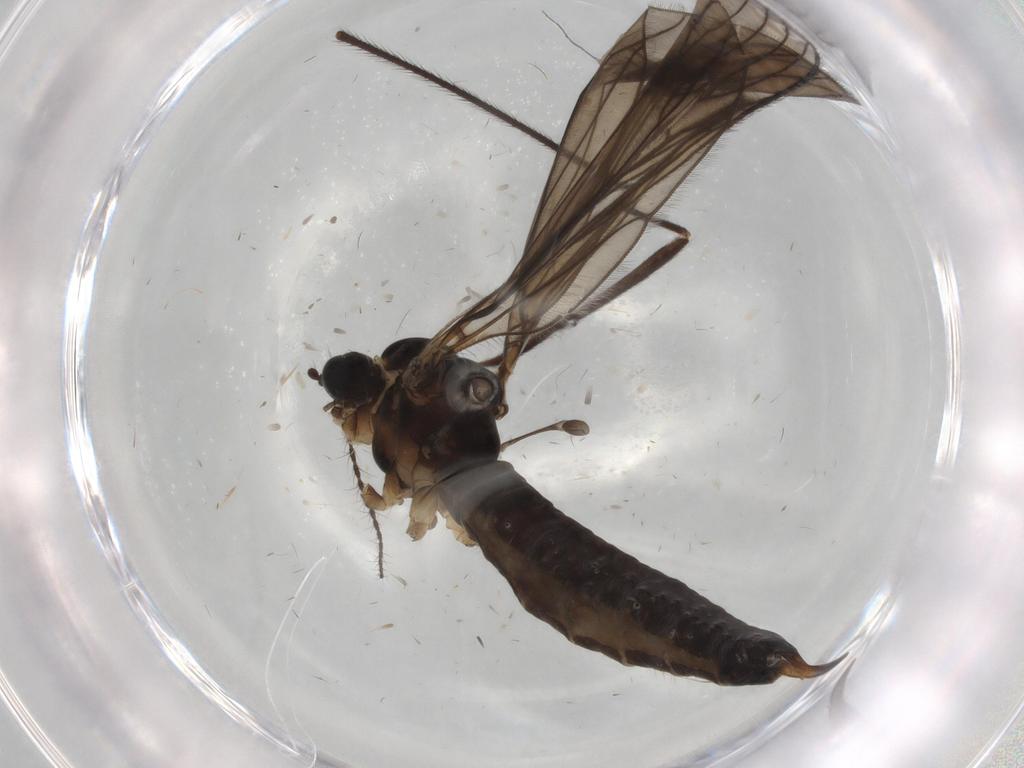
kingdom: Animalia
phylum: Arthropoda
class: Insecta
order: Diptera
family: Limoniidae
